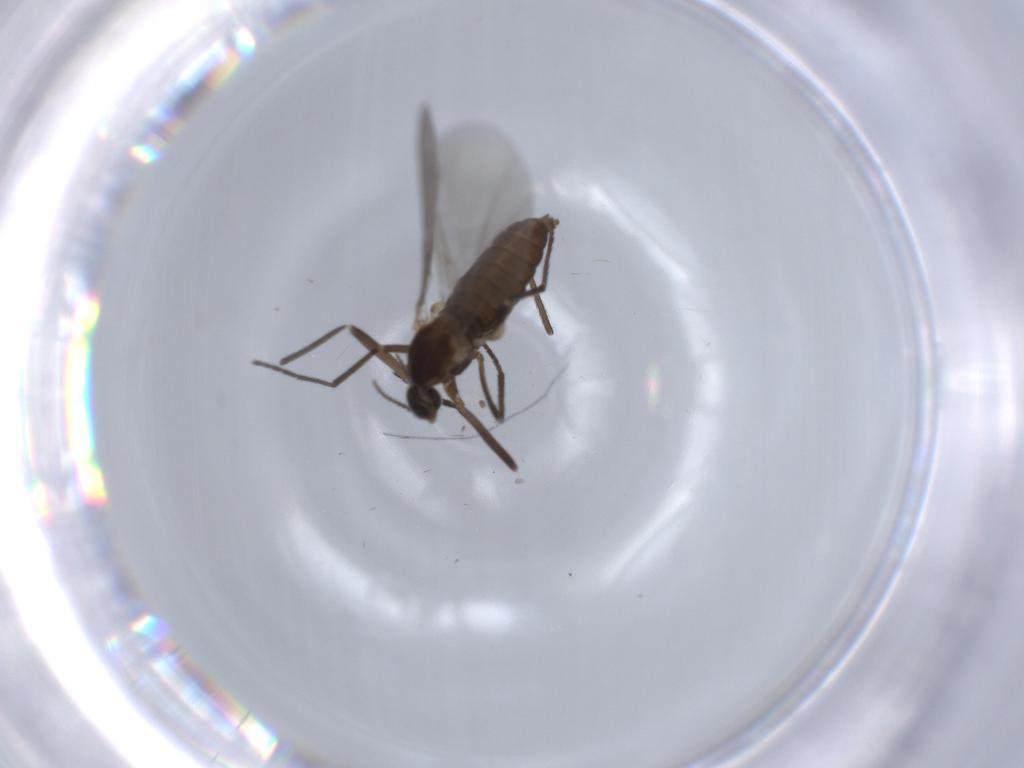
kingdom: Animalia
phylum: Arthropoda
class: Insecta
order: Diptera
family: Cecidomyiidae
